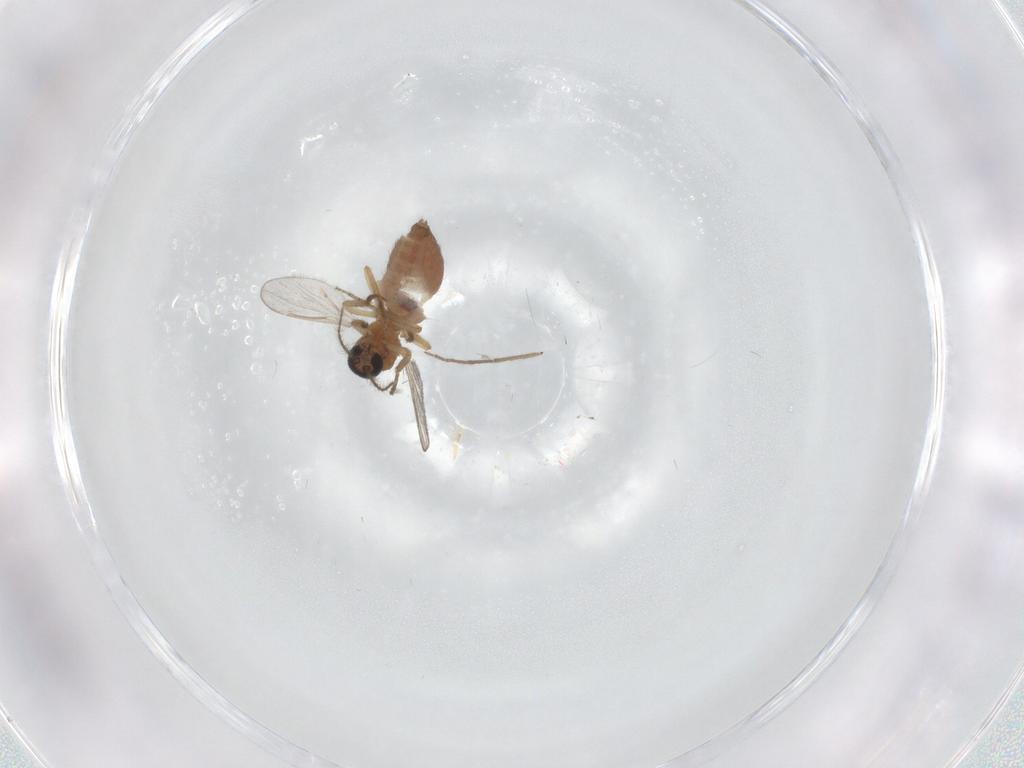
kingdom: Animalia
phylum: Arthropoda
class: Insecta
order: Diptera
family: Ceratopogonidae
